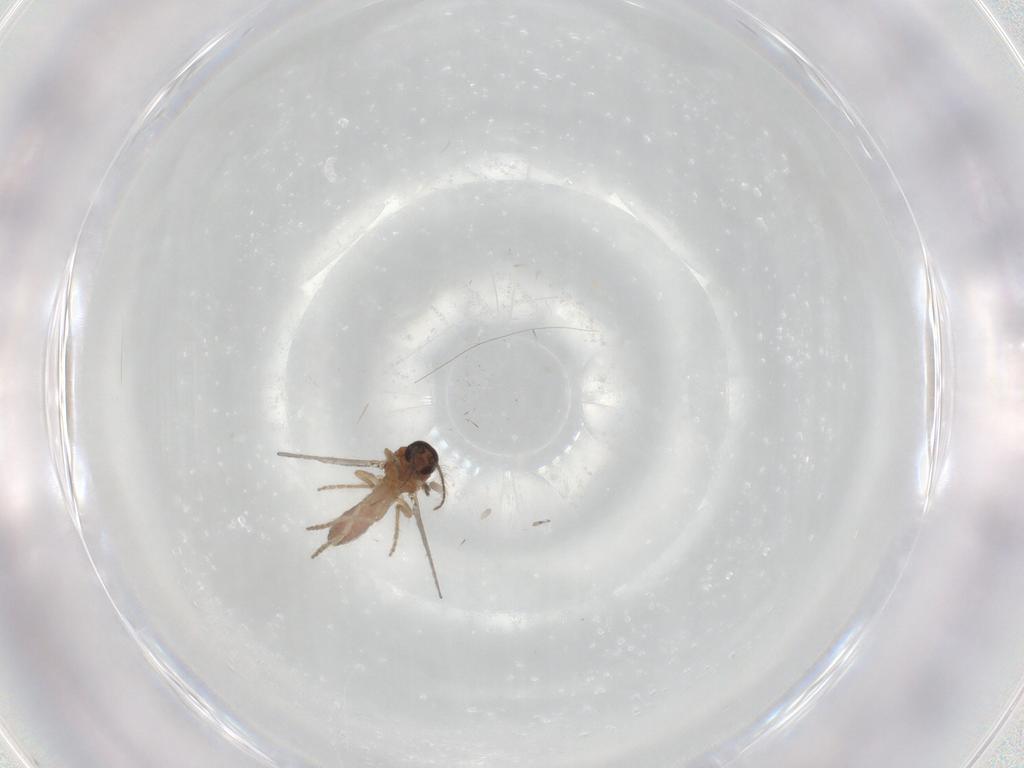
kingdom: Animalia
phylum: Arthropoda
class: Insecta
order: Diptera
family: Ceratopogonidae
